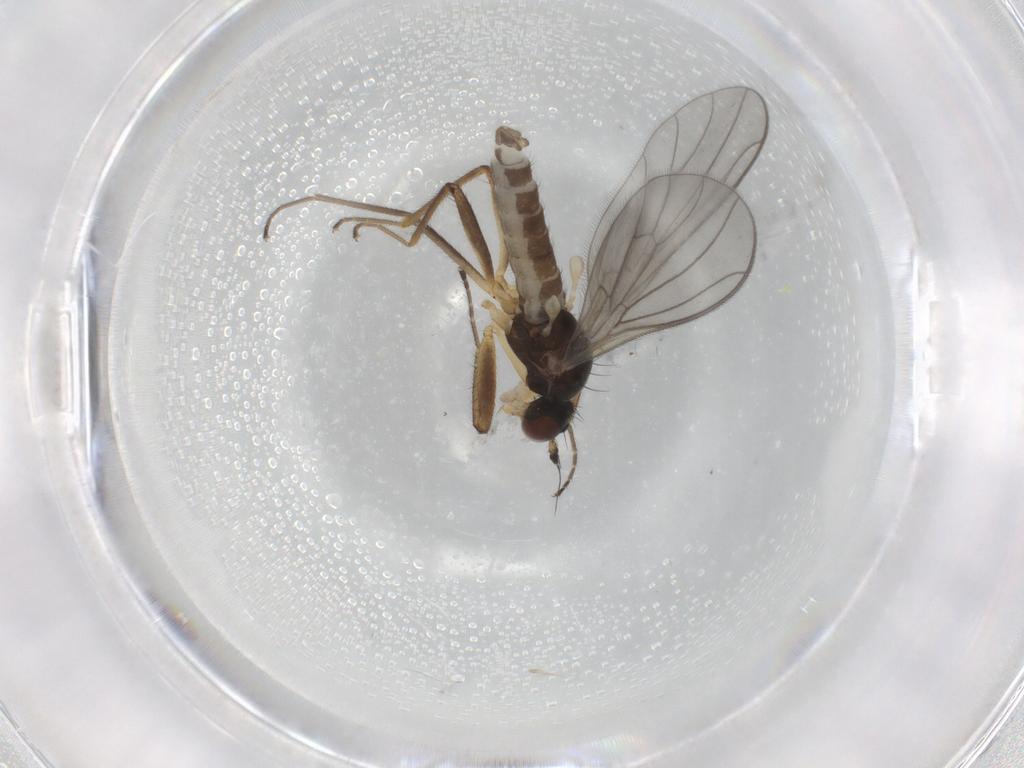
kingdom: Animalia
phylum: Arthropoda
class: Insecta
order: Diptera
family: Empididae
